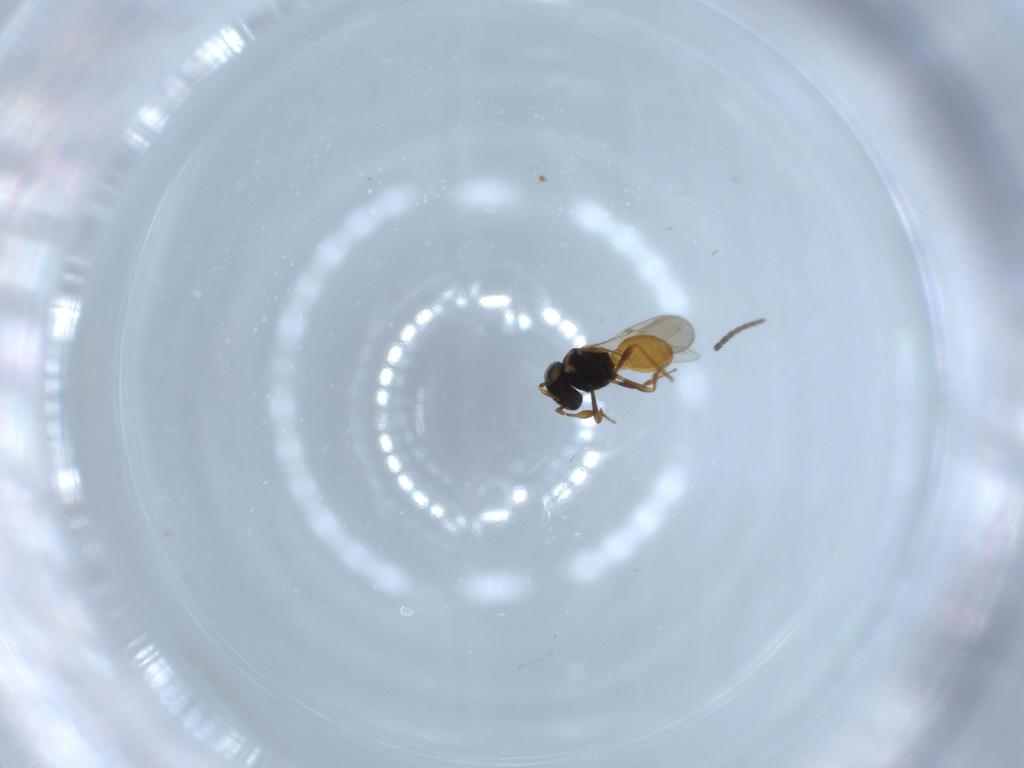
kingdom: Animalia
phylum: Arthropoda
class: Insecta
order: Hymenoptera
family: Scelionidae
